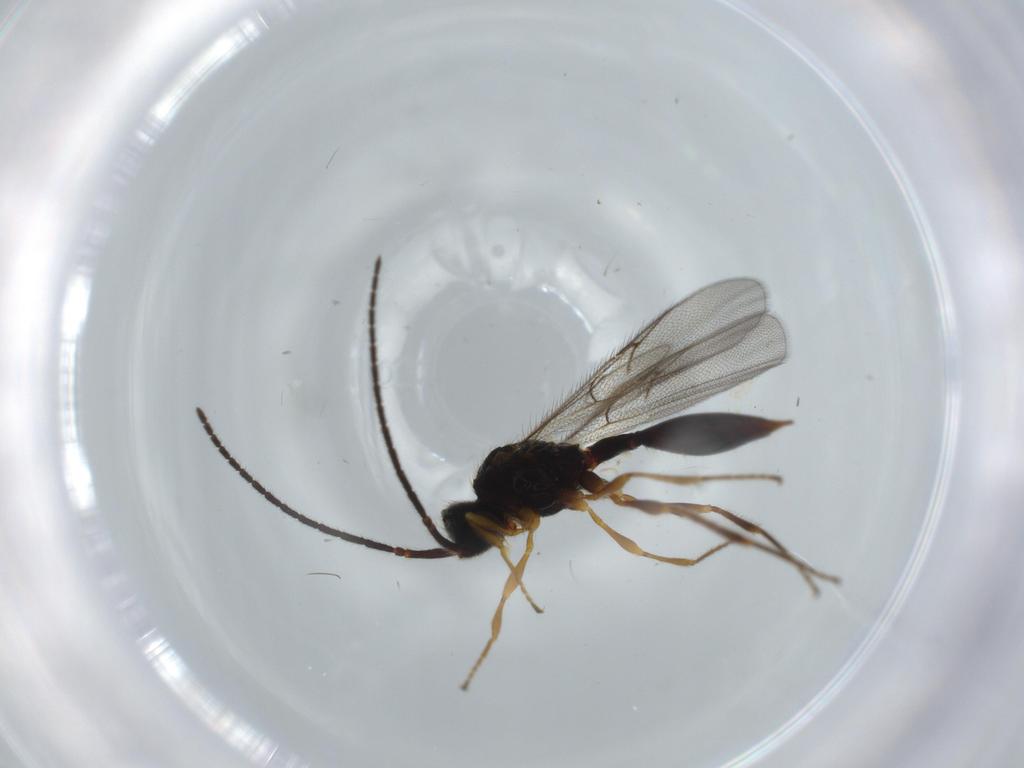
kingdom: Animalia
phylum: Arthropoda
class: Insecta
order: Hymenoptera
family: Diapriidae
